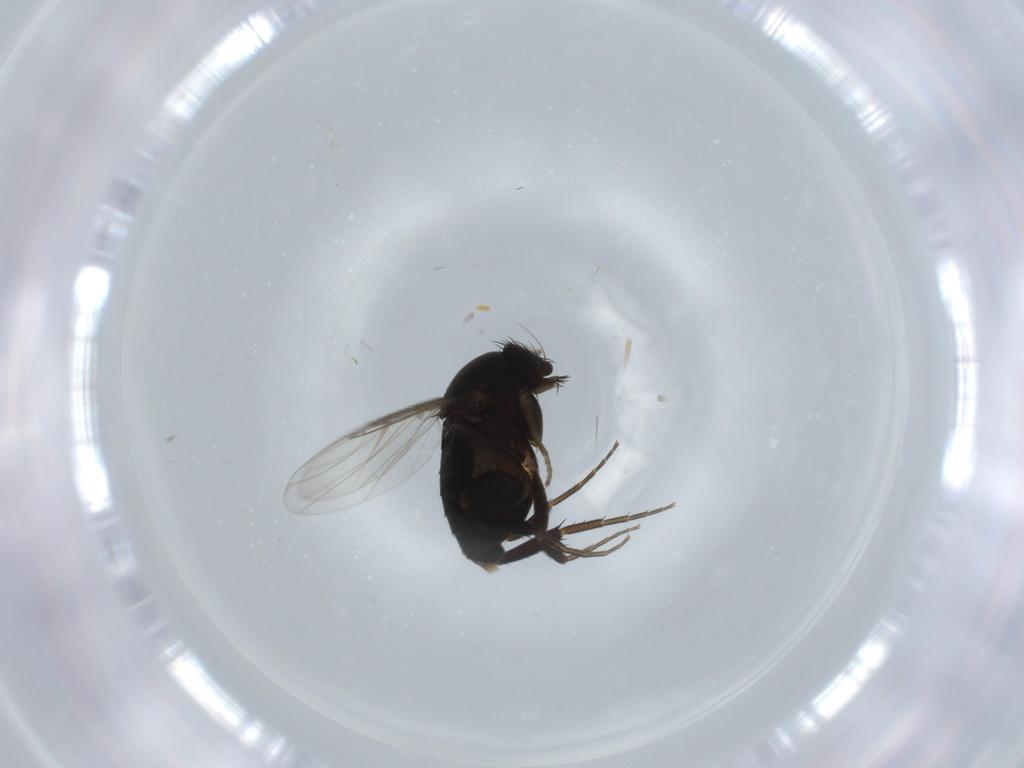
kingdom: Animalia
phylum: Arthropoda
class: Insecta
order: Diptera
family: Phoridae
